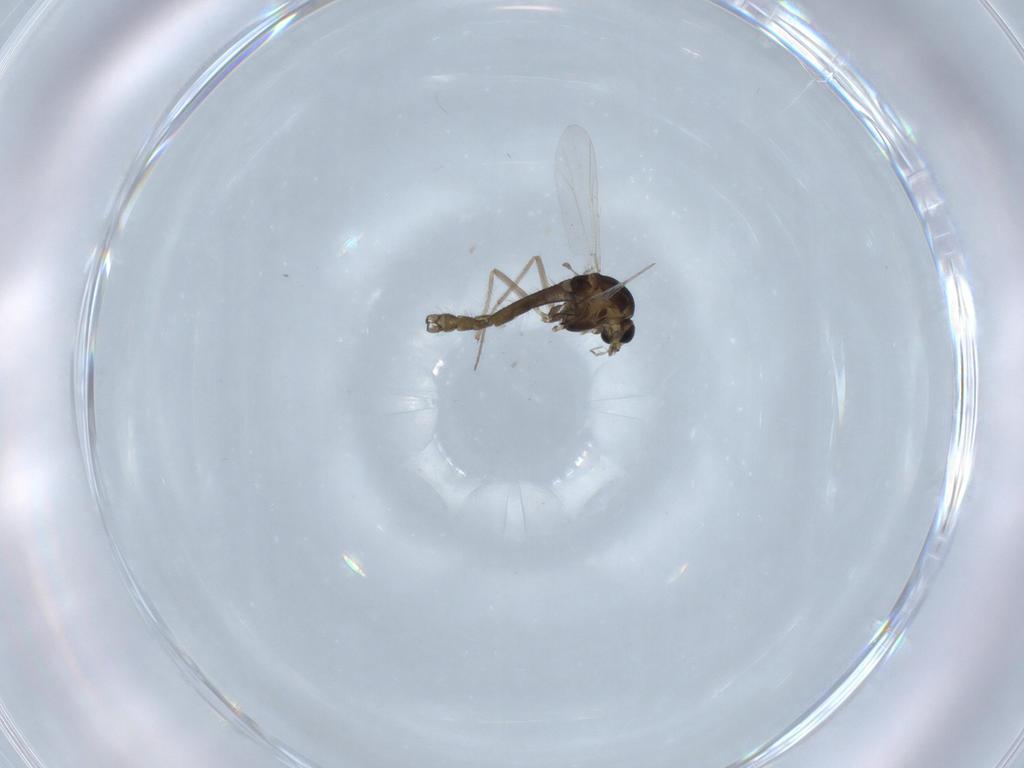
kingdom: Animalia
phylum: Arthropoda
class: Insecta
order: Diptera
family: Chironomidae
